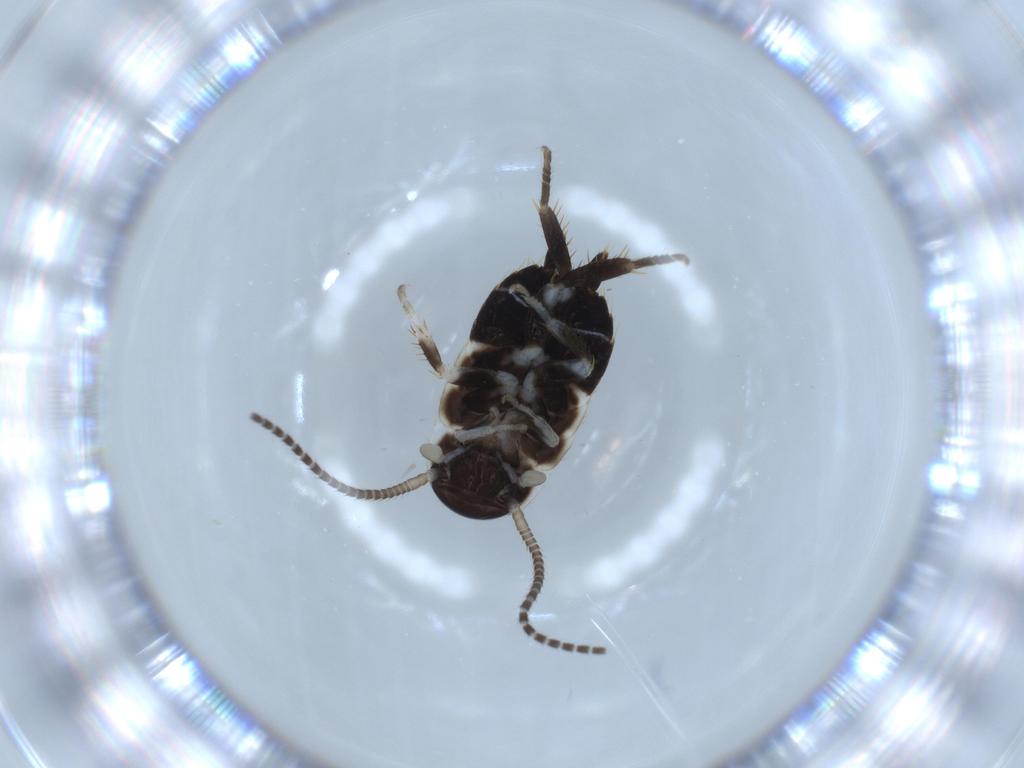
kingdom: Animalia
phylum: Arthropoda
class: Insecta
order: Blattodea
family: Ectobiidae
